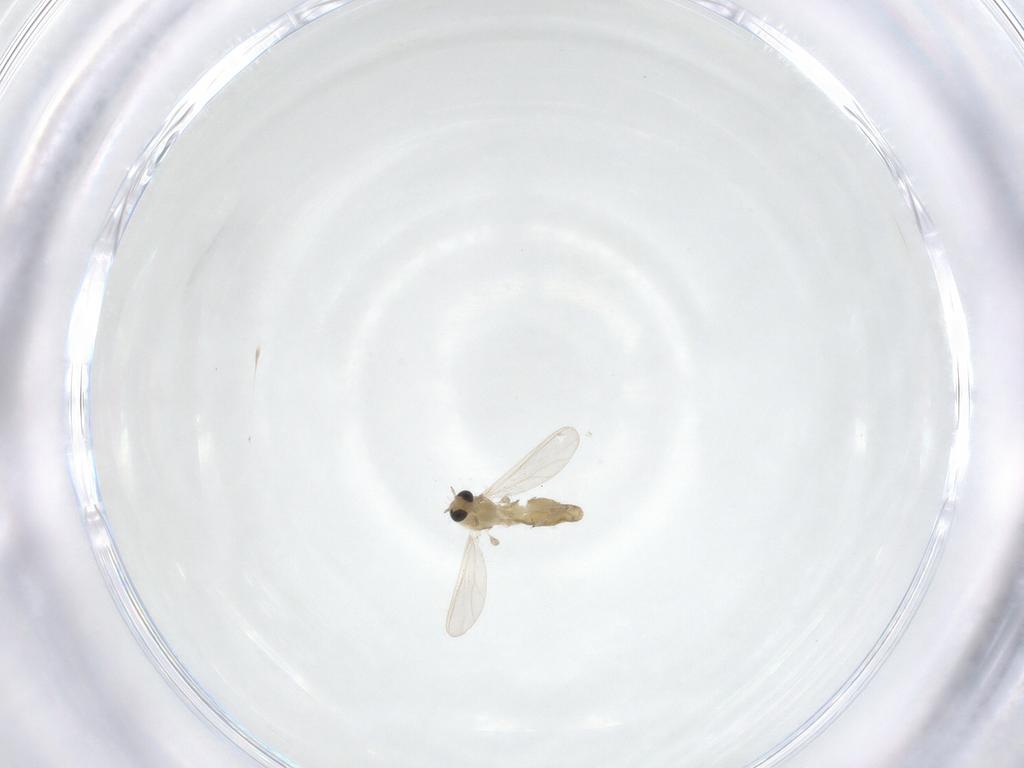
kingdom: Animalia
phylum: Arthropoda
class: Insecta
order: Diptera
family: Chironomidae
